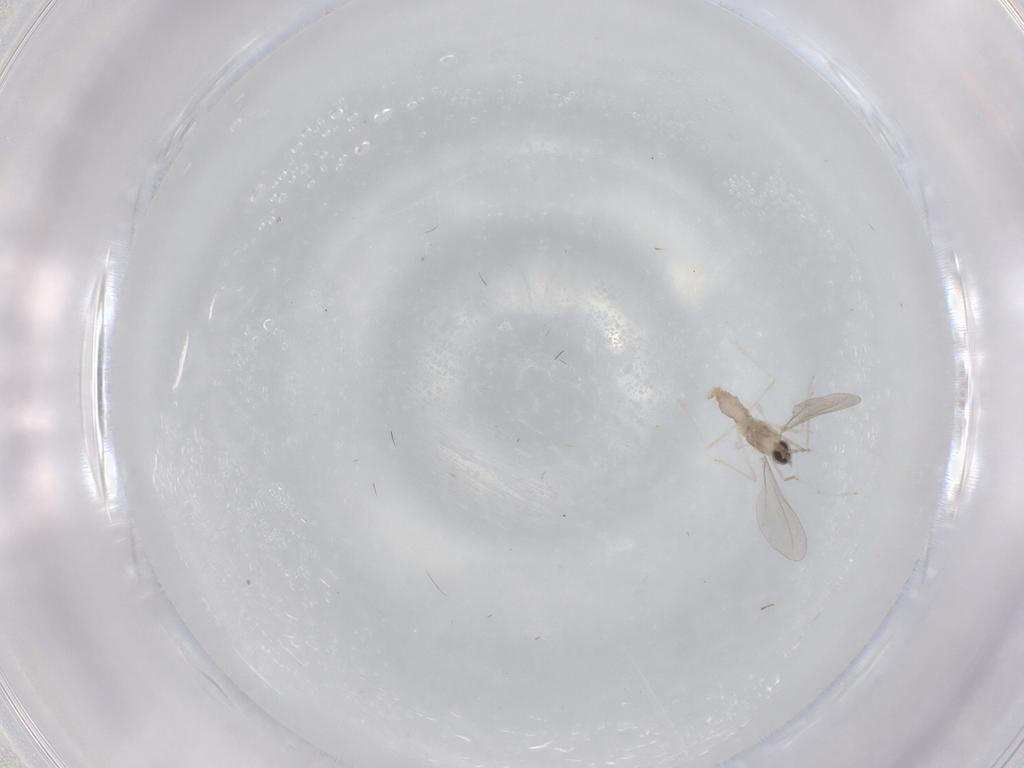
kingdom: Animalia
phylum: Arthropoda
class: Insecta
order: Diptera
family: Cecidomyiidae
